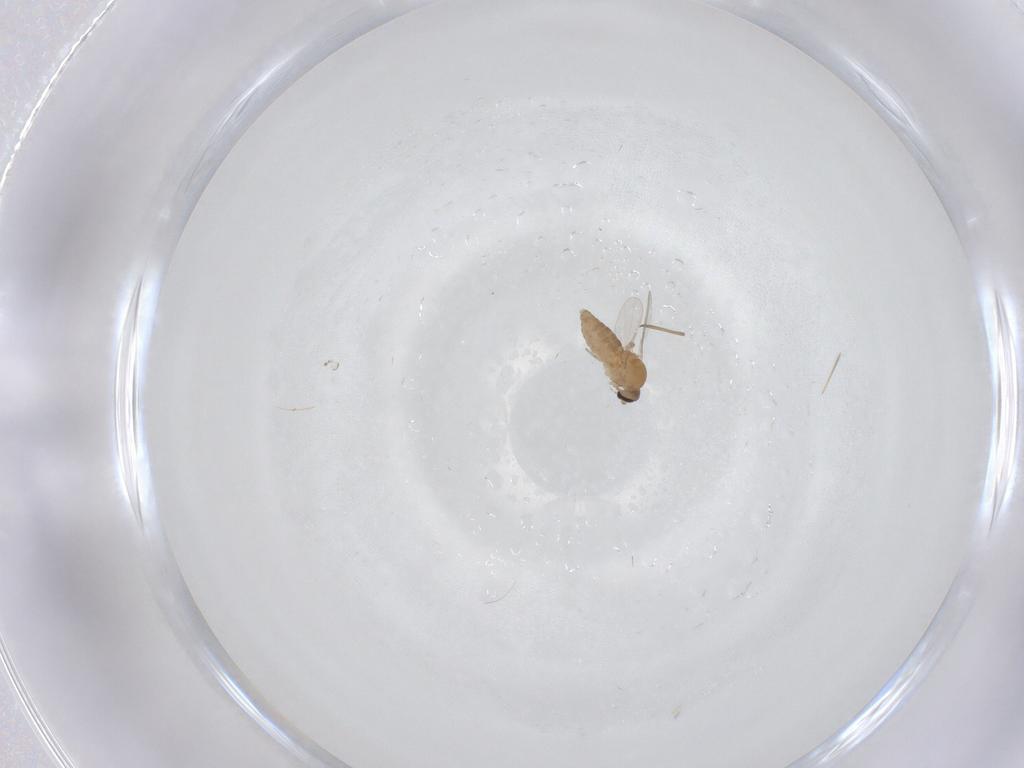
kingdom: Animalia
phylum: Arthropoda
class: Insecta
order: Diptera
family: Ceratopogonidae
